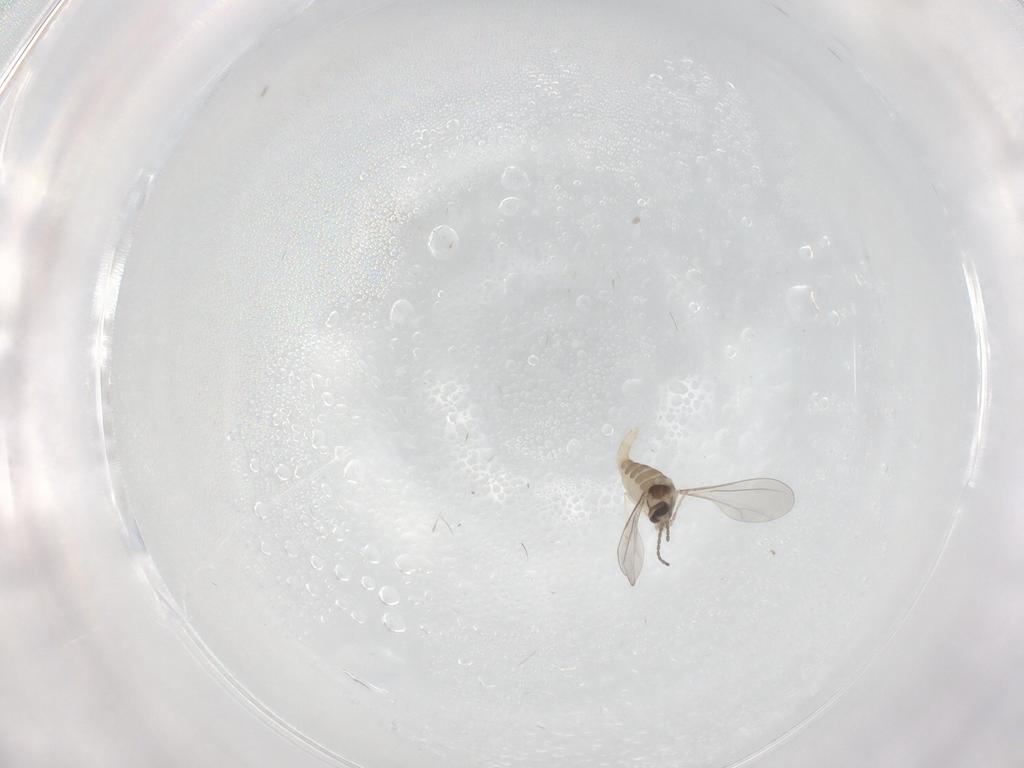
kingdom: Animalia
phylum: Arthropoda
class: Insecta
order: Diptera
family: Cecidomyiidae
